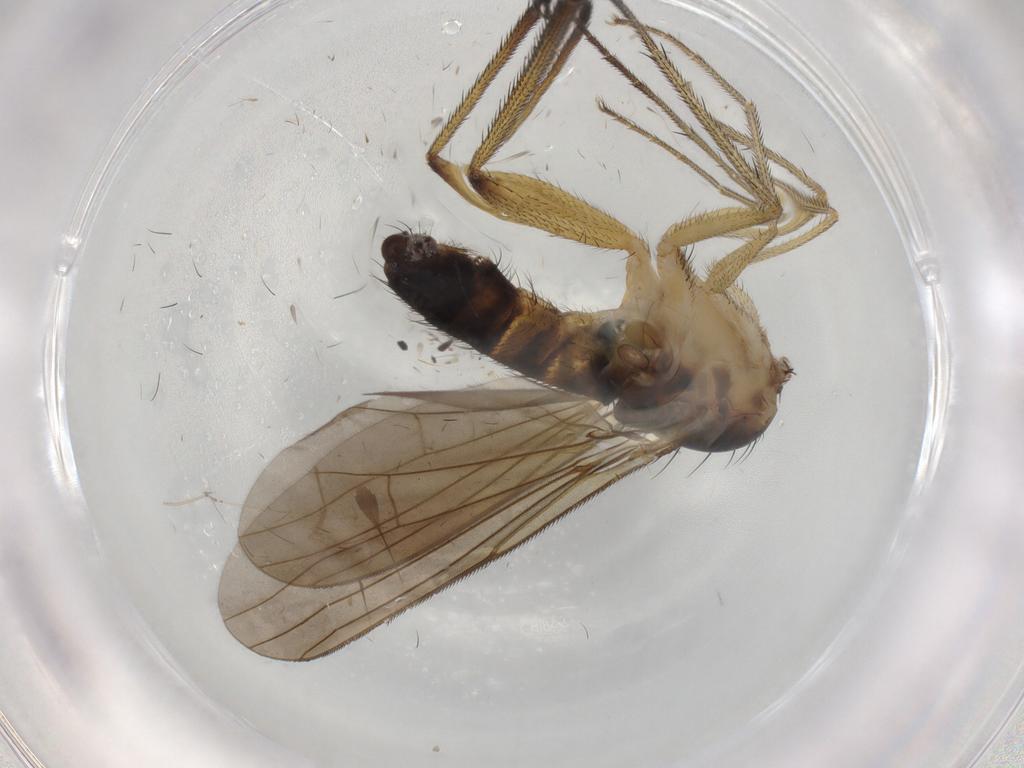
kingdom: Animalia
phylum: Arthropoda
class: Insecta
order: Diptera
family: Dolichopodidae
